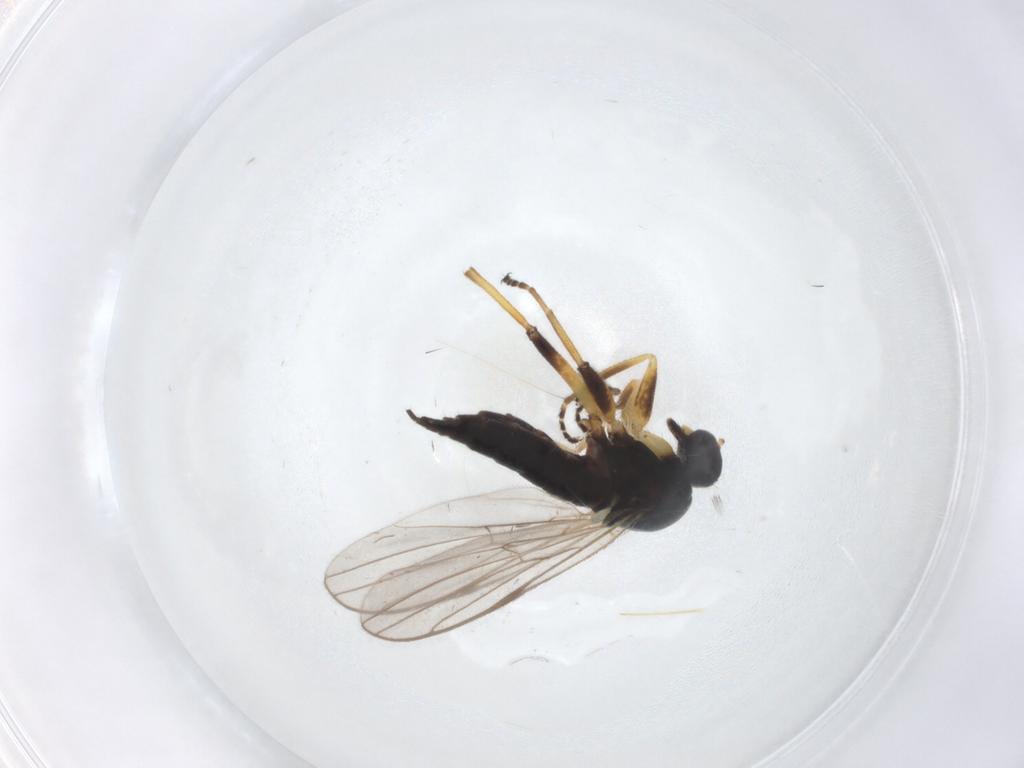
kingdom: Animalia
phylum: Arthropoda
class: Insecta
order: Diptera
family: Hybotidae
